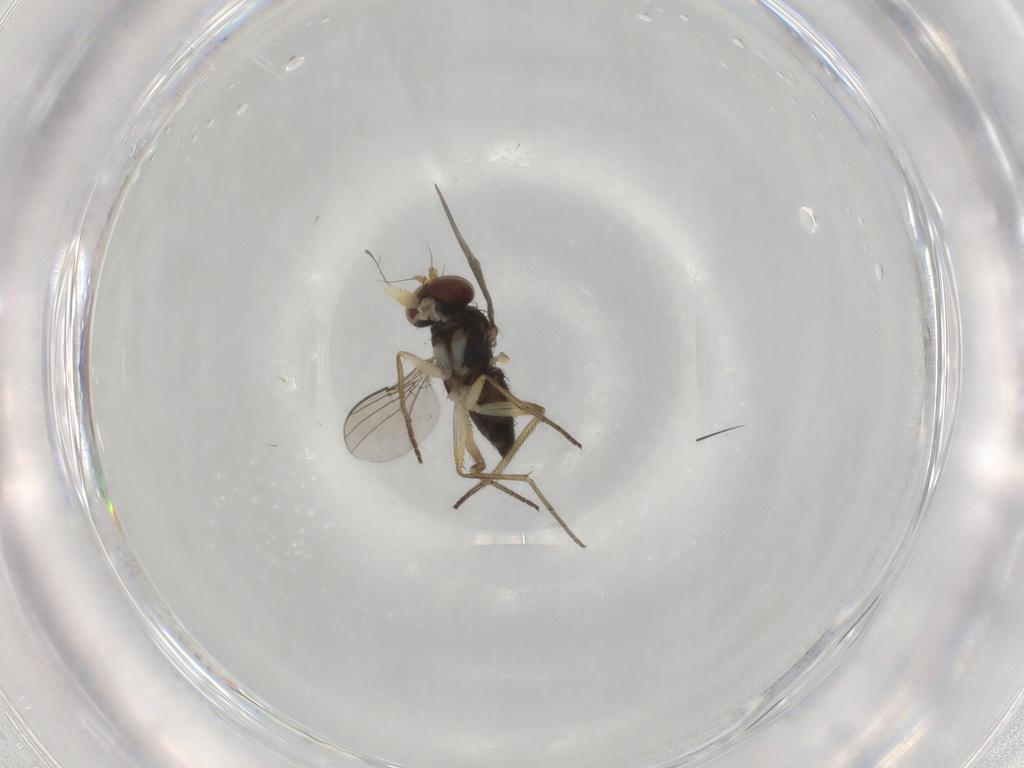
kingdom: Animalia
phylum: Arthropoda
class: Insecta
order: Diptera
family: Dolichopodidae
